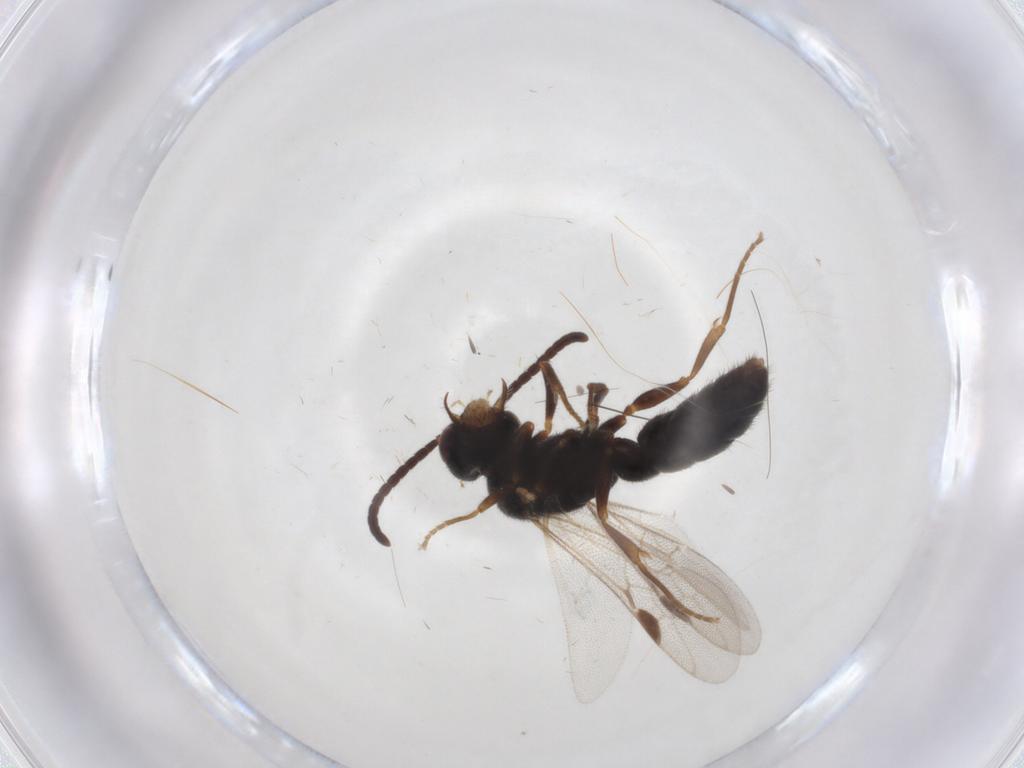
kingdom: Animalia
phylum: Arthropoda
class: Insecta
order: Hymenoptera
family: Formicidae
